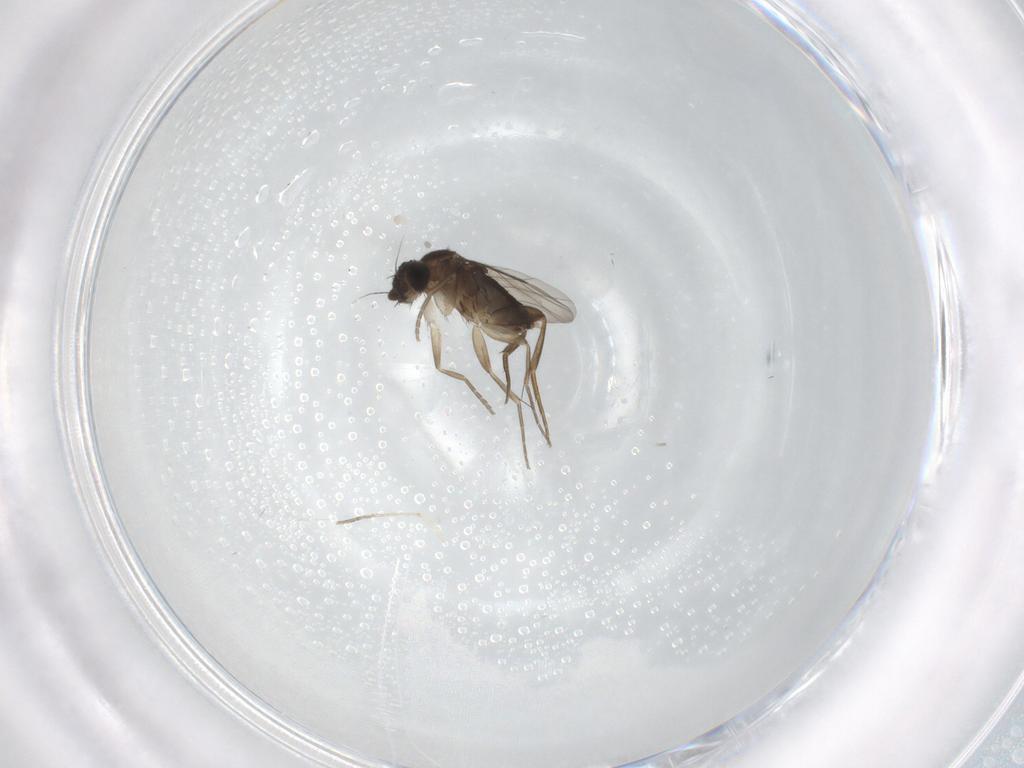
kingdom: Animalia
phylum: Arthropoda
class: Insecta
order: Diptera
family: Phoridae
